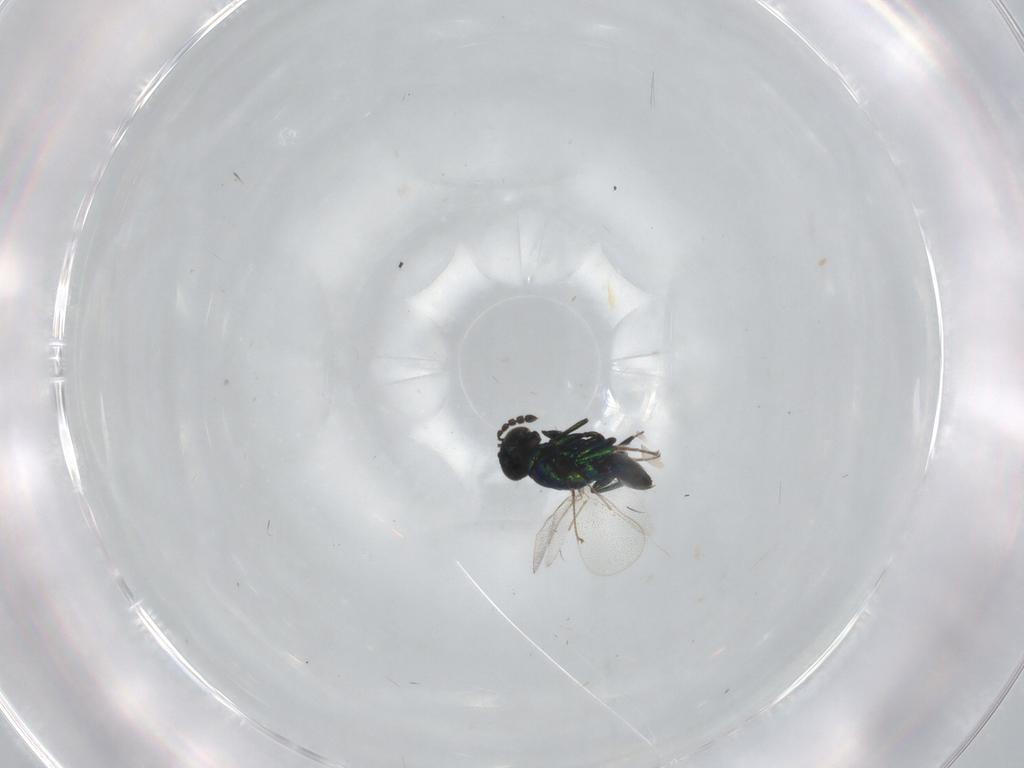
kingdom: Animalia
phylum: Arthropoda
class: Insecta
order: Hymenoptera
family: Eulophidae
